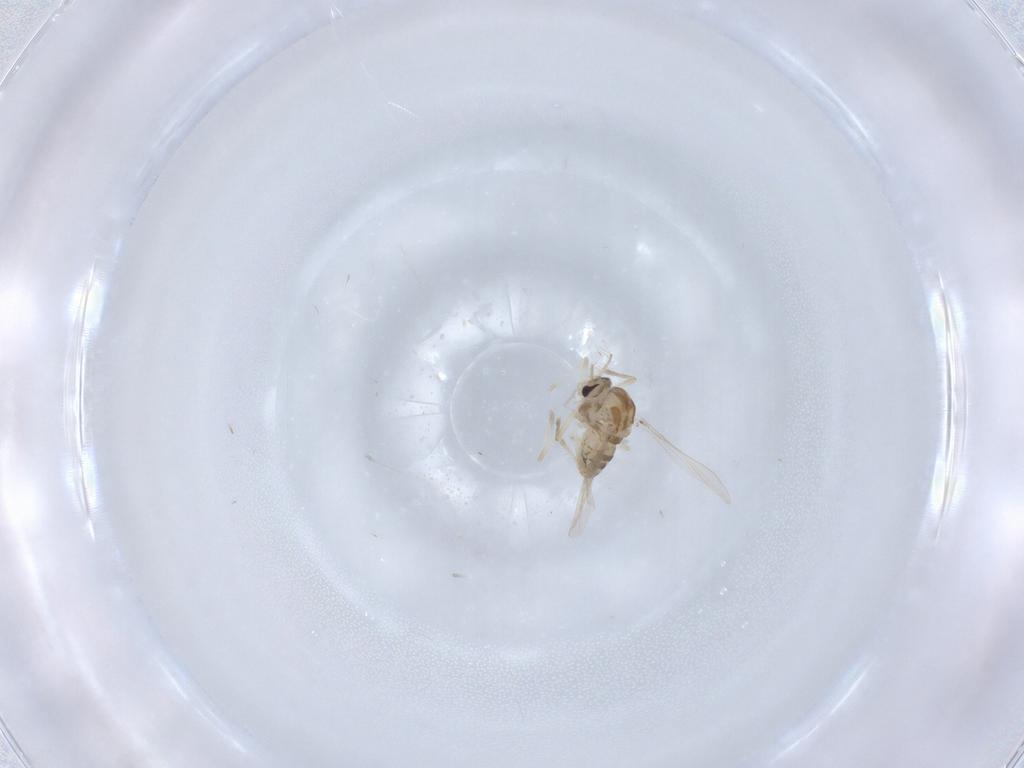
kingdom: Animalia
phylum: Arthropoda
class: Insecta
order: Diptera
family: Chironomidae
